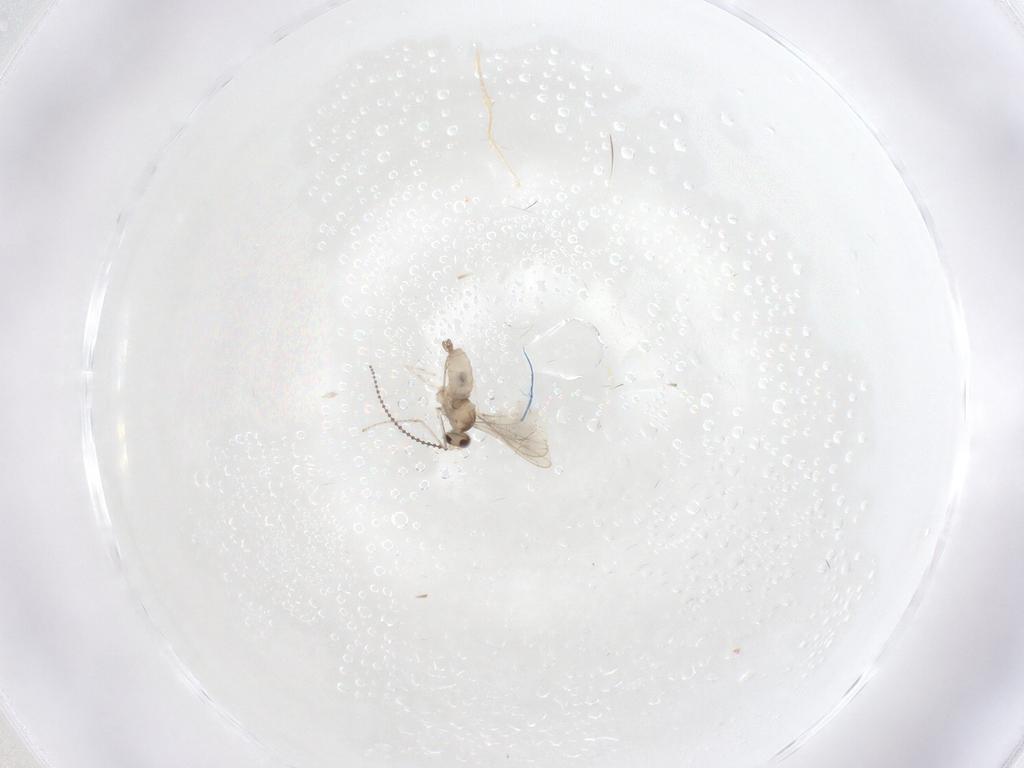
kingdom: Animalia
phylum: Arthropoda
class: Insecta
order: Diptera
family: Cecidomyiidae
